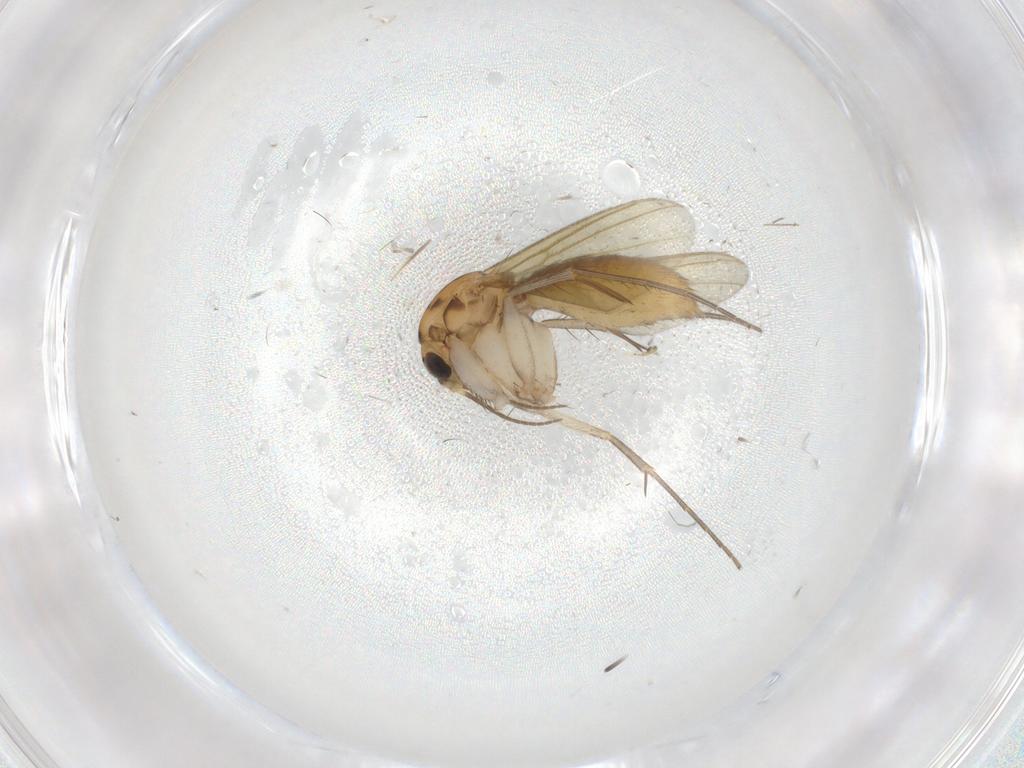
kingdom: Animalia
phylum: Arthropoda
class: Insecta
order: Diptera
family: Mycetophilidae
